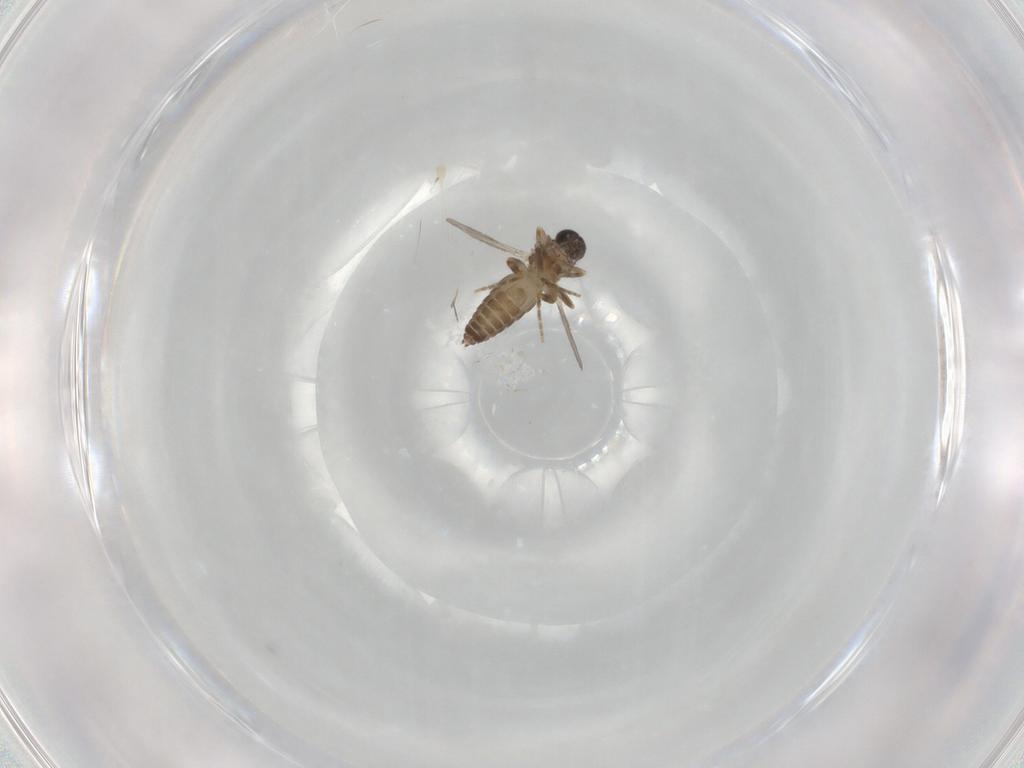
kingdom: Animalia
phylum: Arthropoda
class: Insecta
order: Diptera
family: Ceratopogonidae
